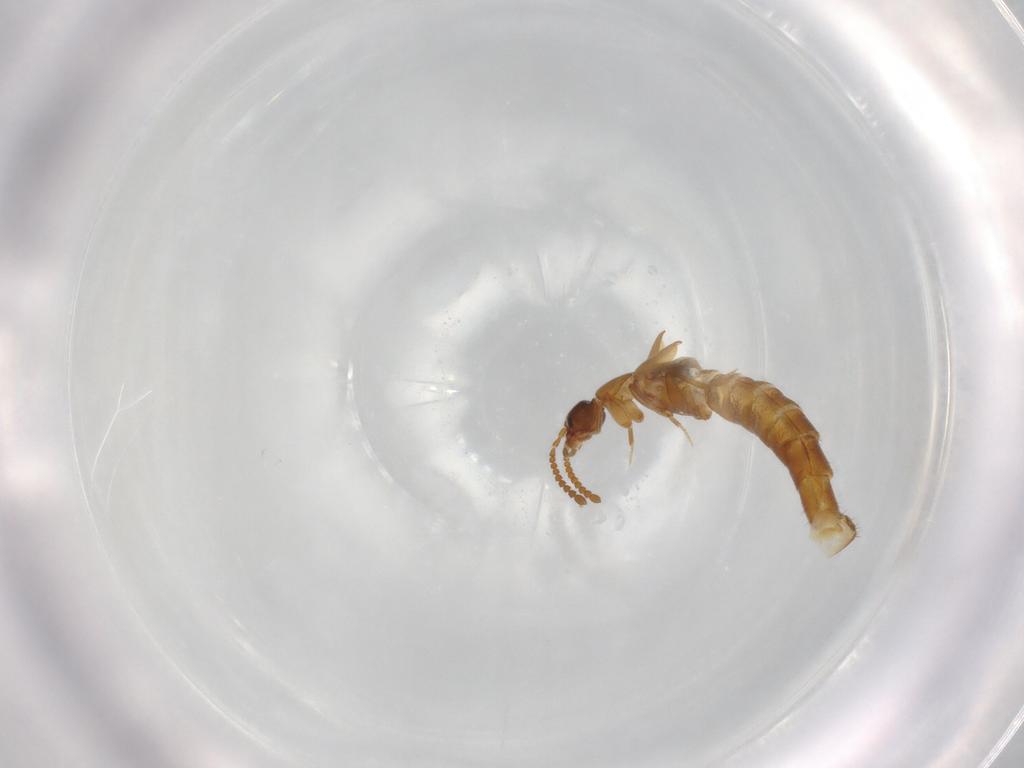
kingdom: Animalia
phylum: Arthropoda
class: Insecta
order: Coleoptera
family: Staphylinidae
